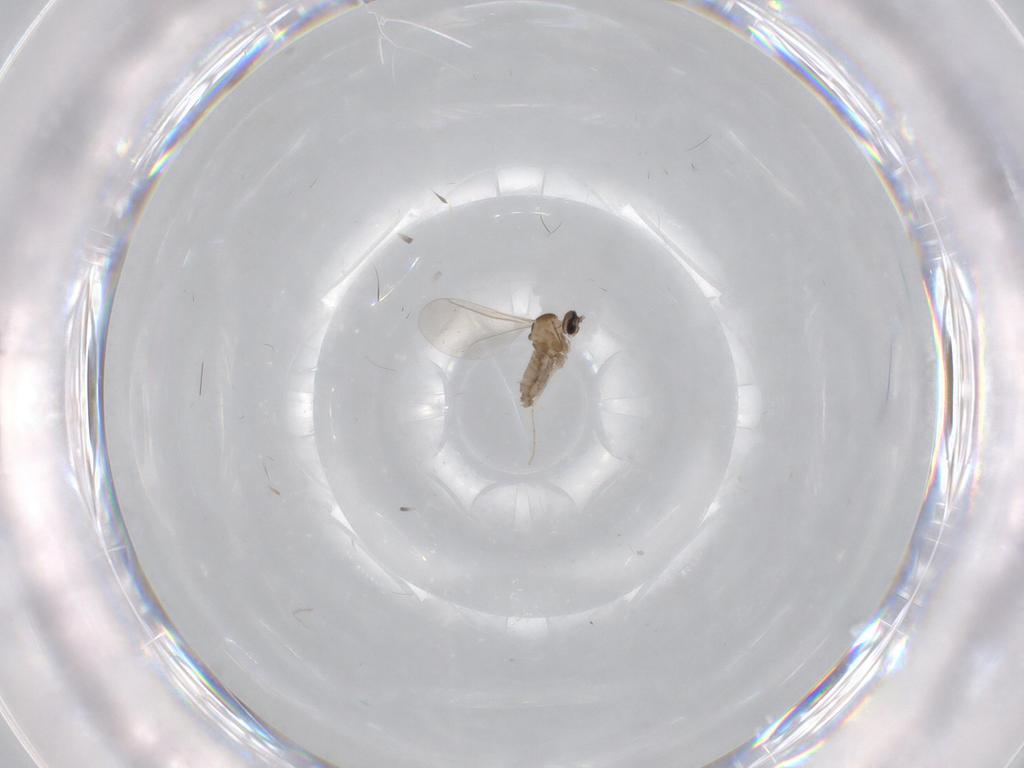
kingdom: Animalia
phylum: Arthropoda
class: Insecta
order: Diptera
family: Cecidomyiidae
